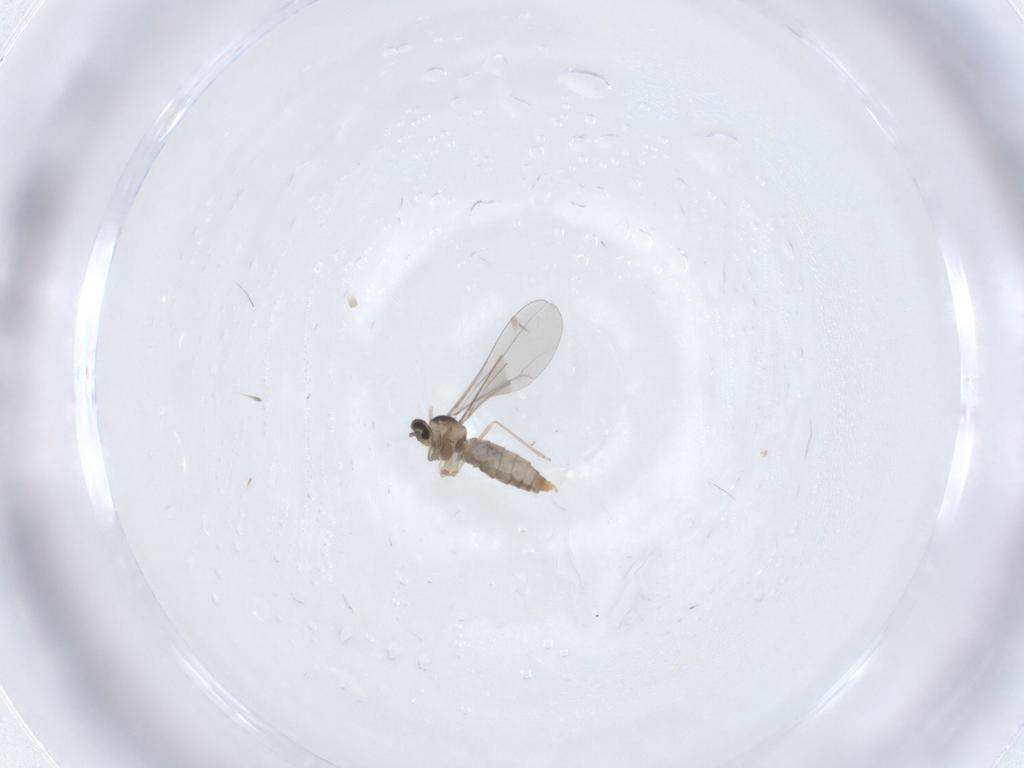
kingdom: Animalia
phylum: Arthropoda
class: Insecta
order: Diptera
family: Cecidomyiidae
